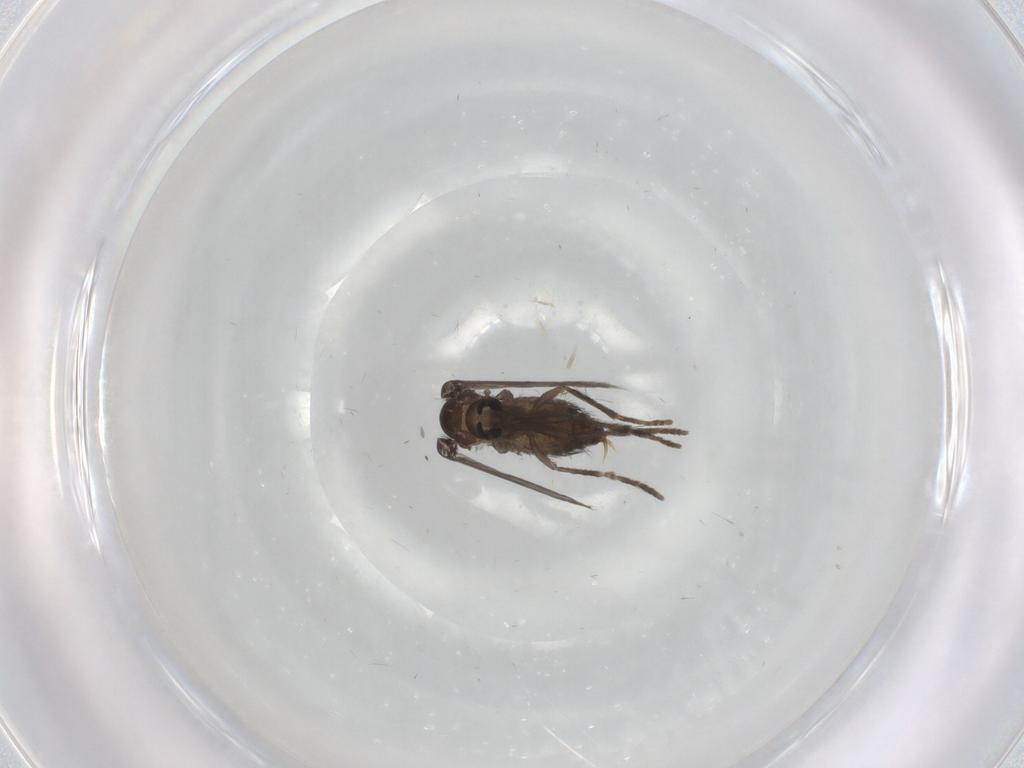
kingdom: Animalia
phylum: Arthropoda
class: Insecta
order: Diptera
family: Psychodidae
